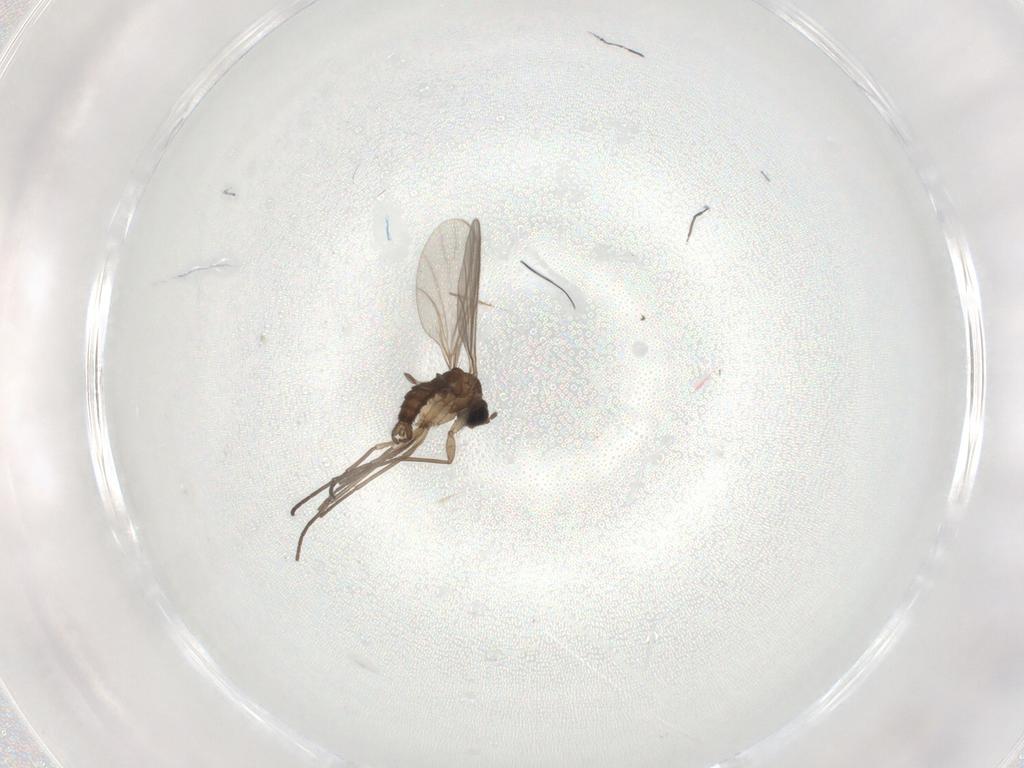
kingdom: Animalia
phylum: Arthropoda
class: Insecta
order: Diptera
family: Sciaridae
